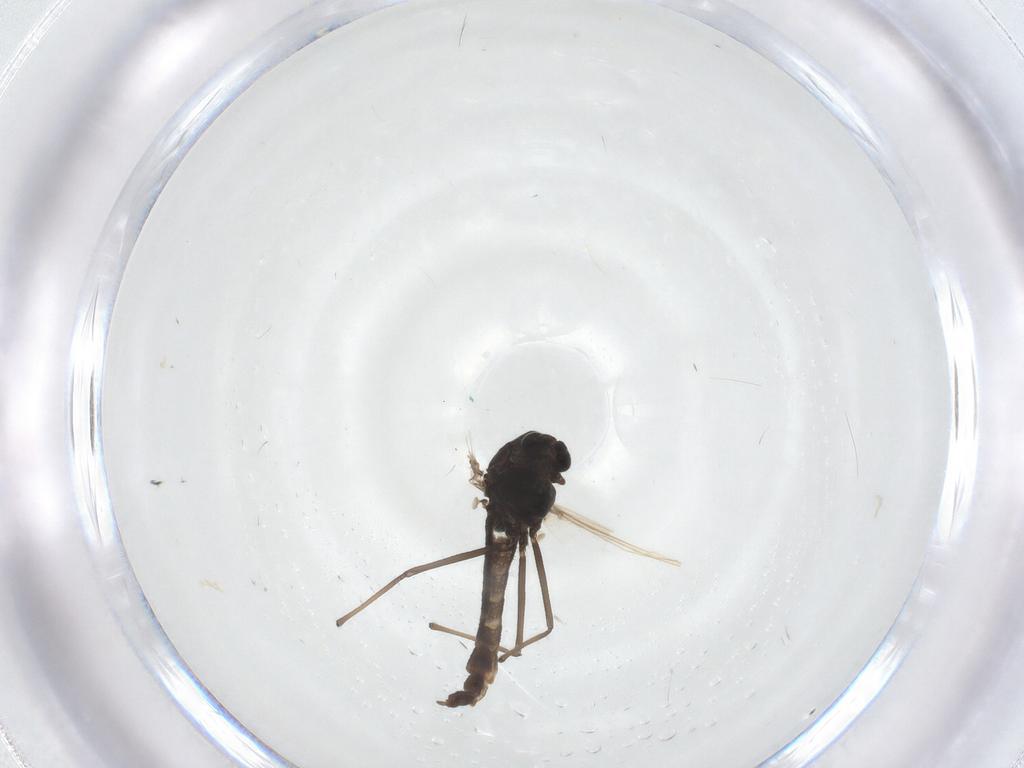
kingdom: Animalia
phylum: Arthropoda
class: Insecta
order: Diptera
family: Chironomidae
